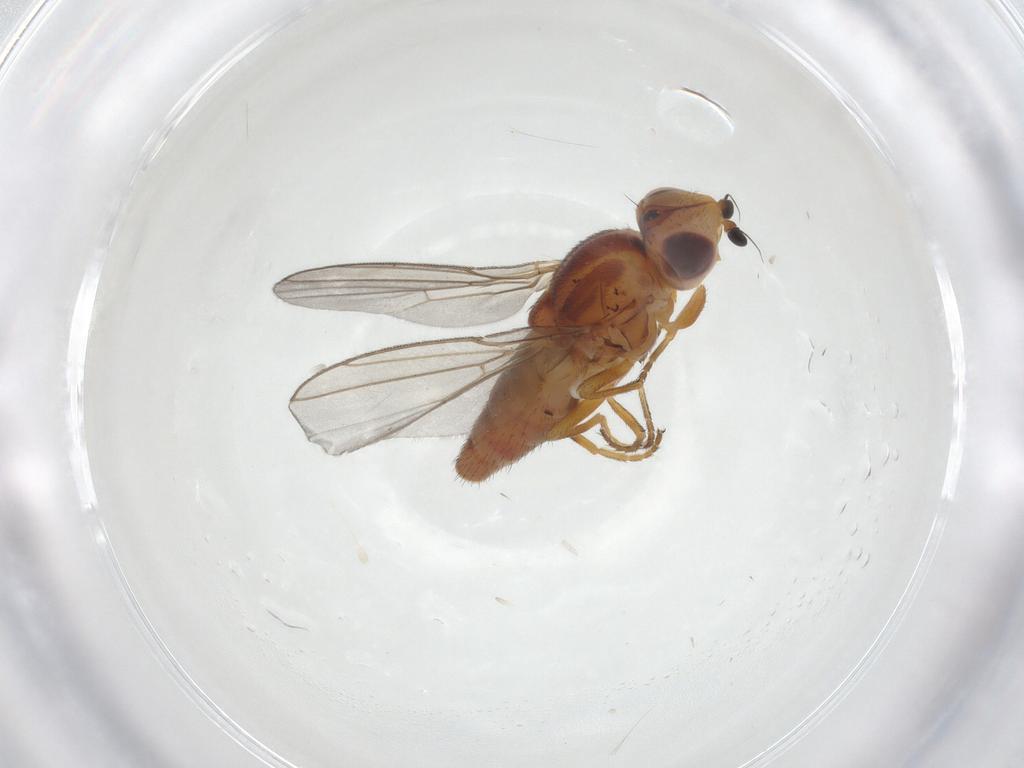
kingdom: Animalia
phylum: Arthropoda
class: Insecta
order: Diptera
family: Chloropidae
